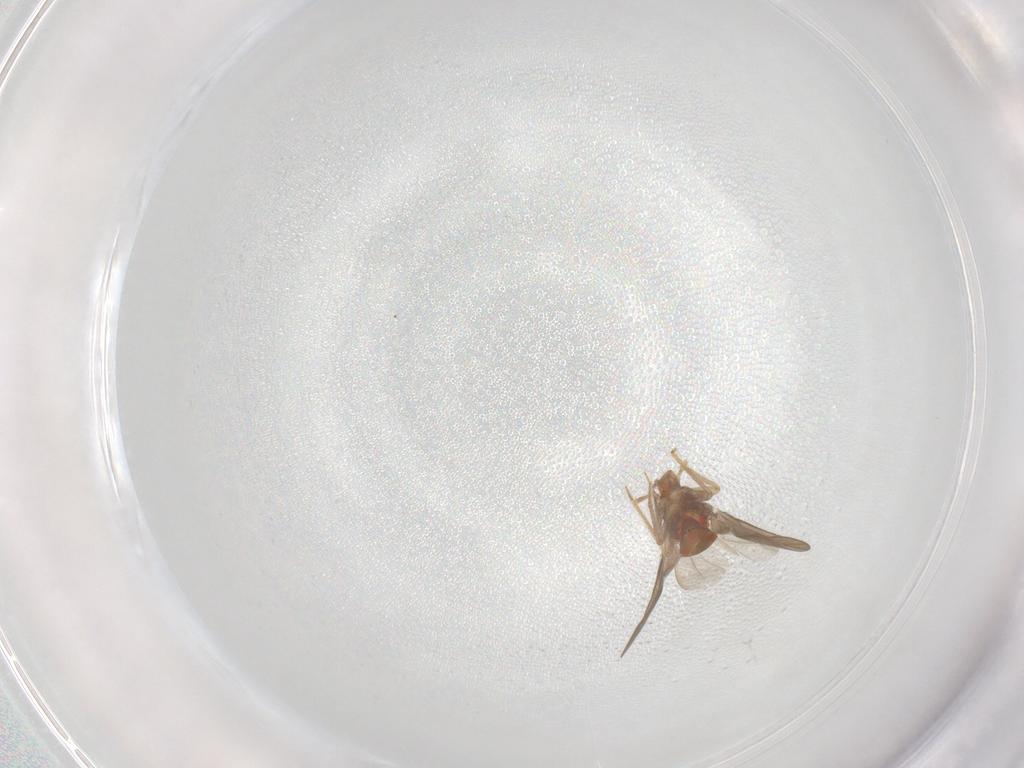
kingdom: Animalia
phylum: Arthropoda
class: Insecta
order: Hemiptera
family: Ceratocombidae
